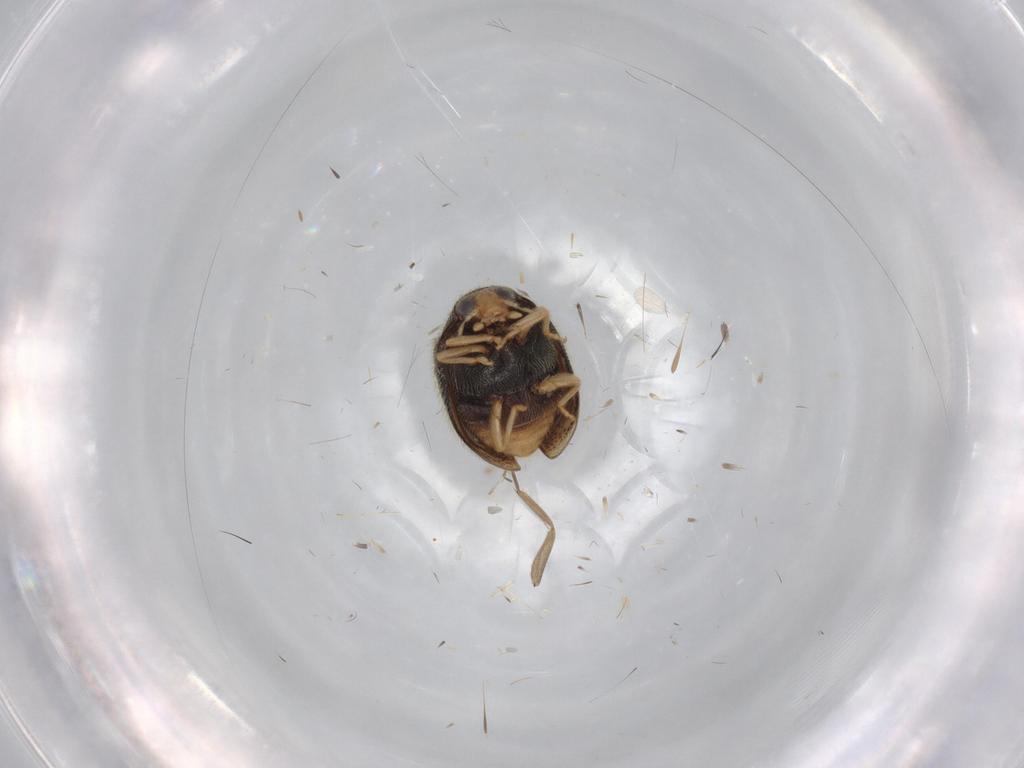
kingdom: Animalia
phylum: Arthropoda
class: Insecta
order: Coleoptera
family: Coccinellidae
